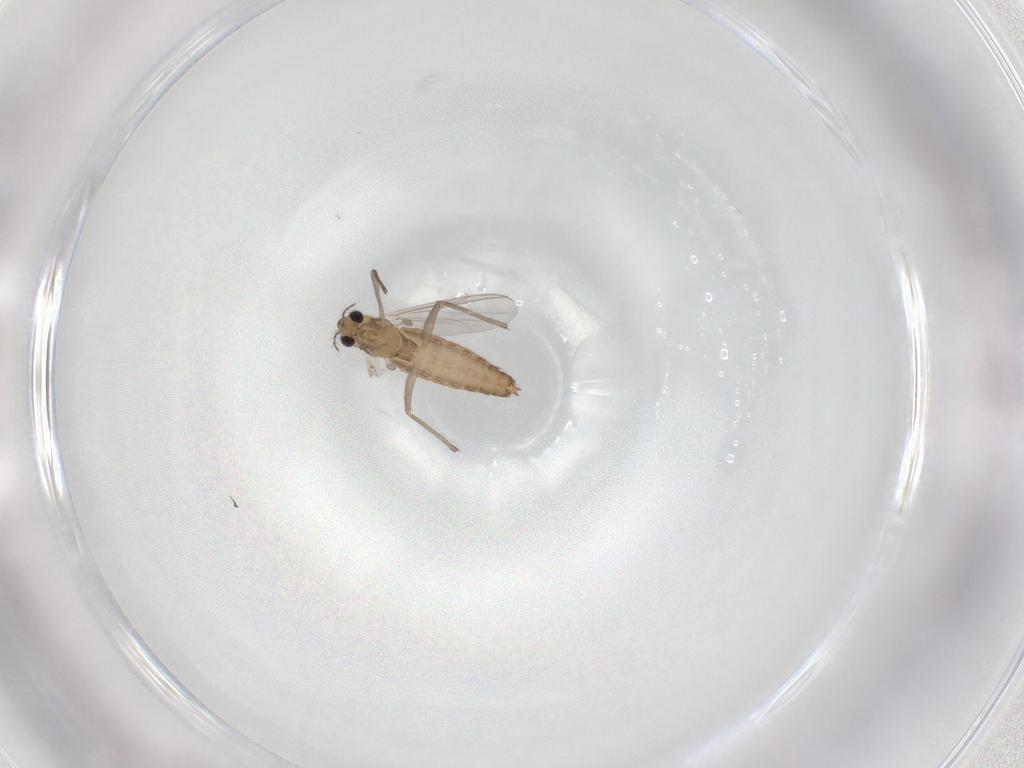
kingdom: Animalia
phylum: Arthropoda
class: Insecta
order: Diptera
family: Chironomidae
